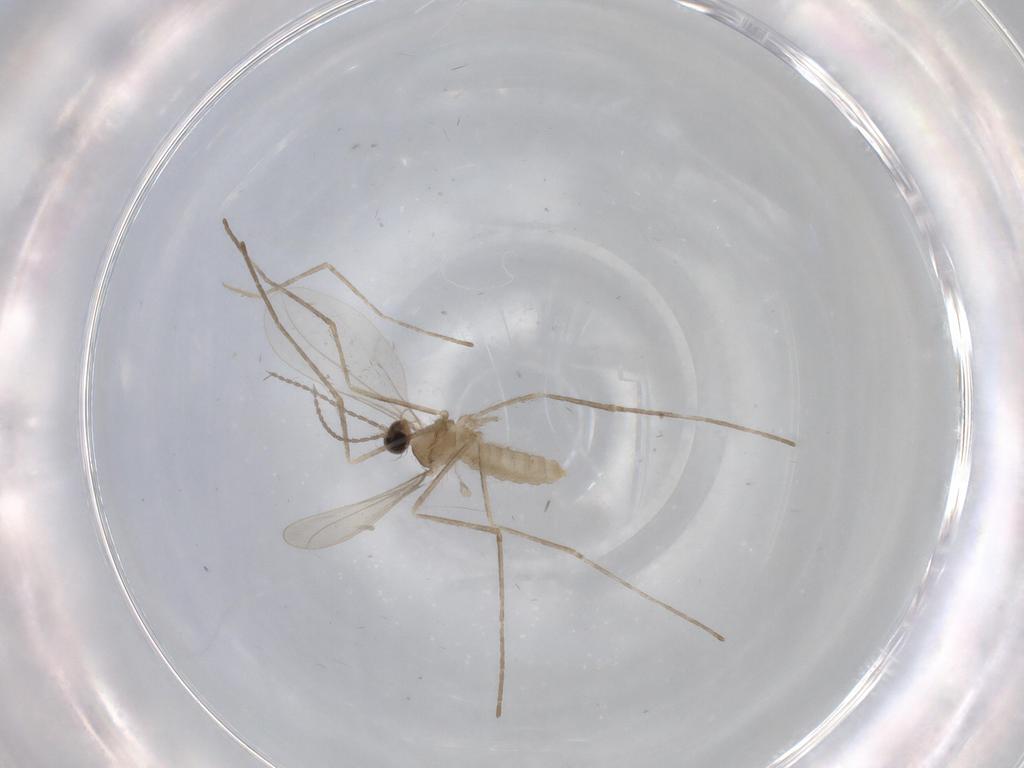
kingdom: Animalia
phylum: Arthropoda
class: Insecta
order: Diptera
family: Cecidomyiidae
